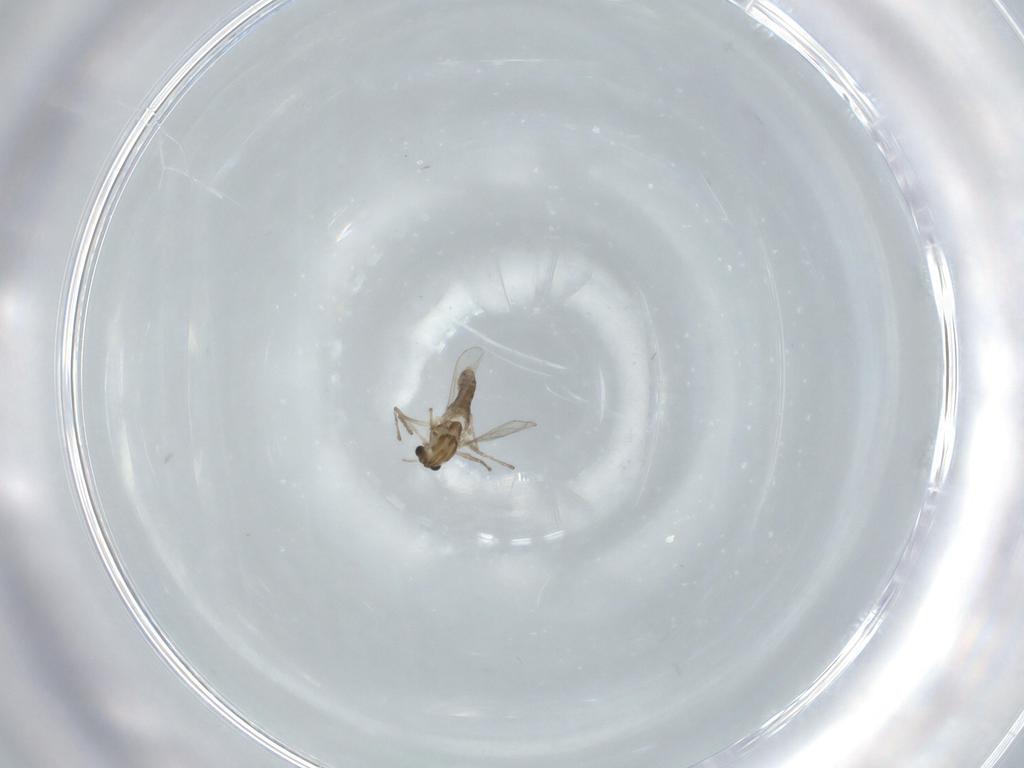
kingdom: Animalia
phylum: Arthropoda
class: Insecta
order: Diptera
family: Chironomidae
